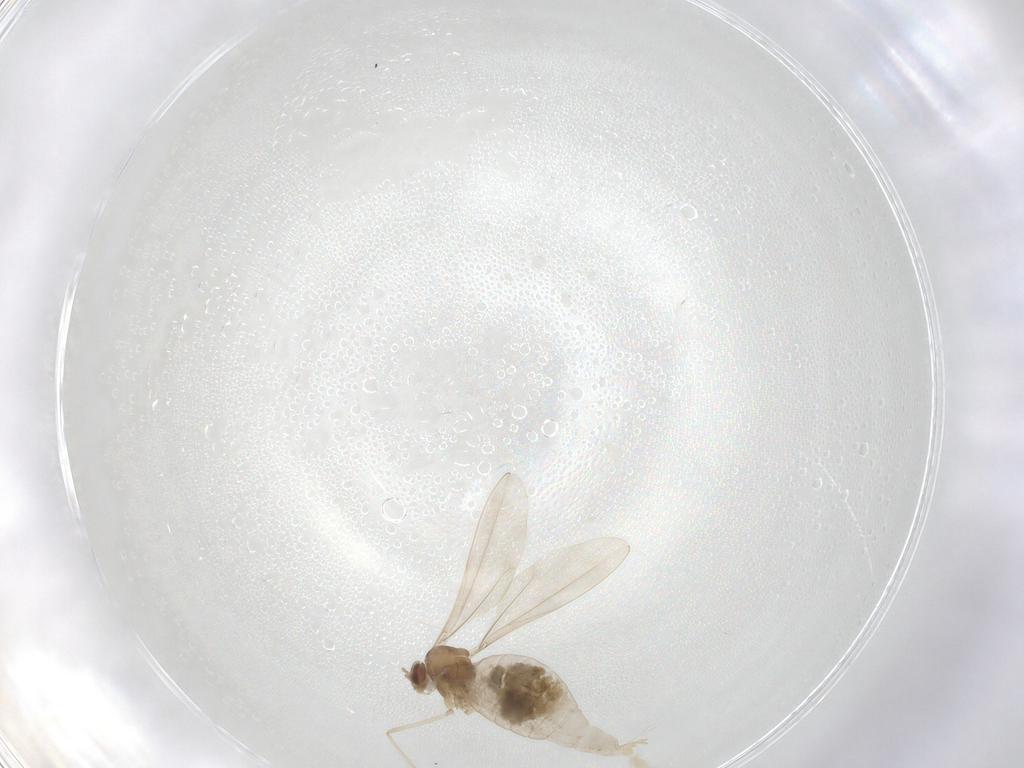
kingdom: Animalia
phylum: Arthropoda
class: Insecta
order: Diptera
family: Cecidomyiidae
